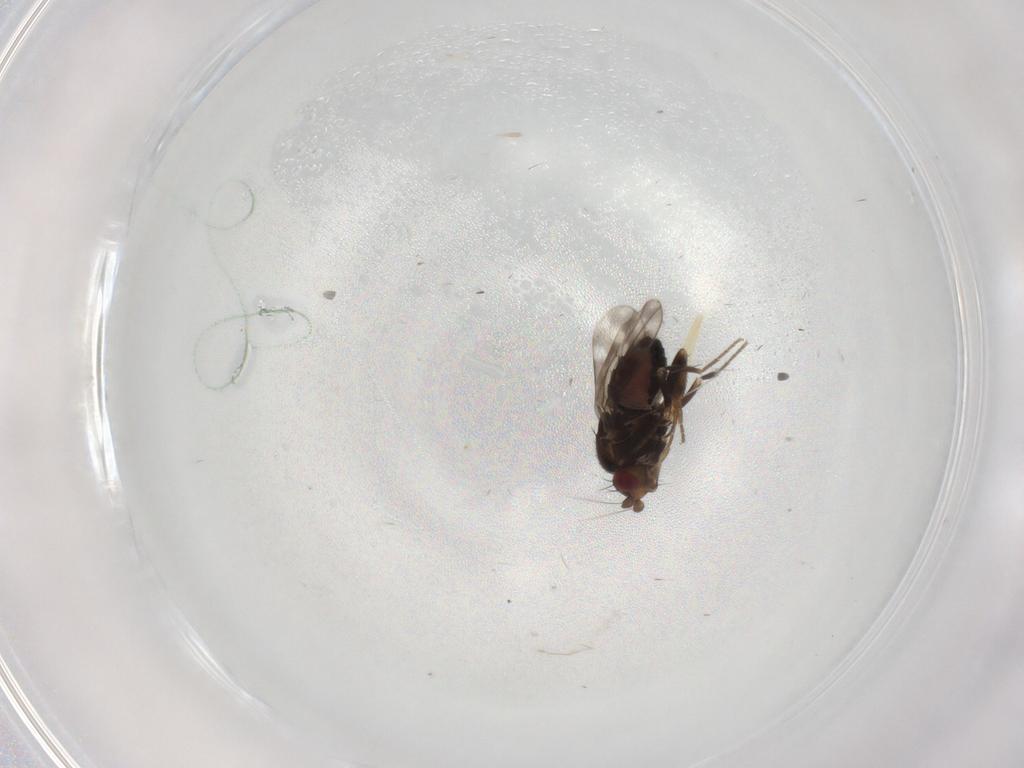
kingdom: Animalia
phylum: Arthropoda
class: Insecta
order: Diptera
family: Sphaeroceridae
